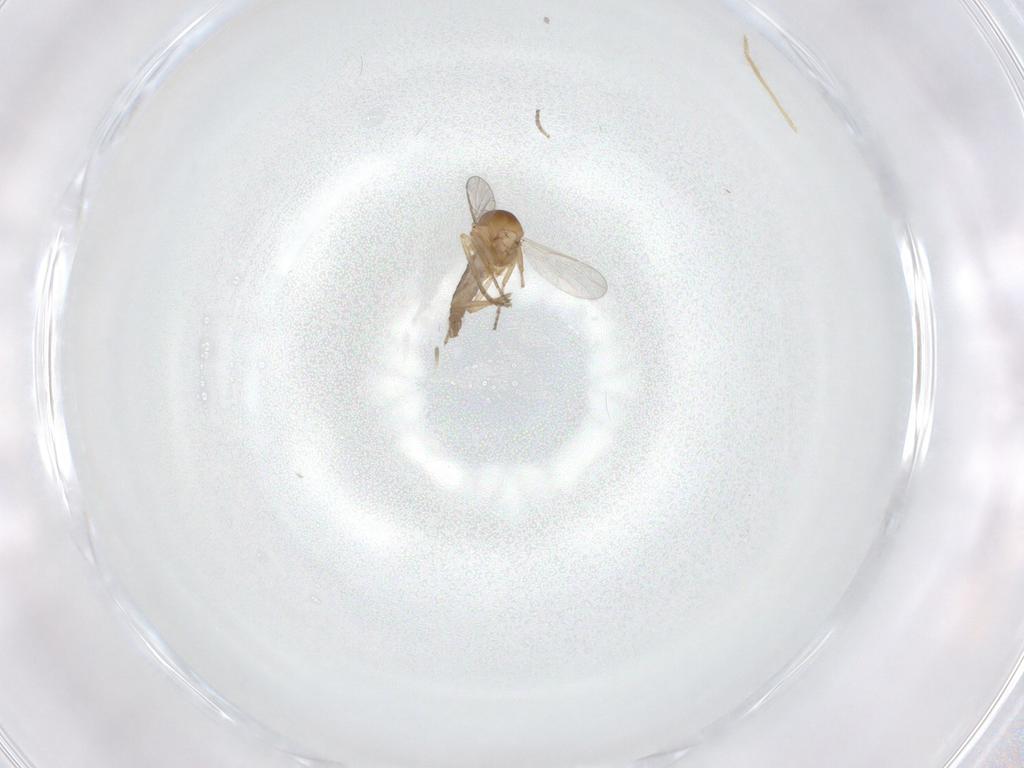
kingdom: Animalia
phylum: Arthropoda
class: Insecta
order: Diptera
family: Ceratopogonidae
